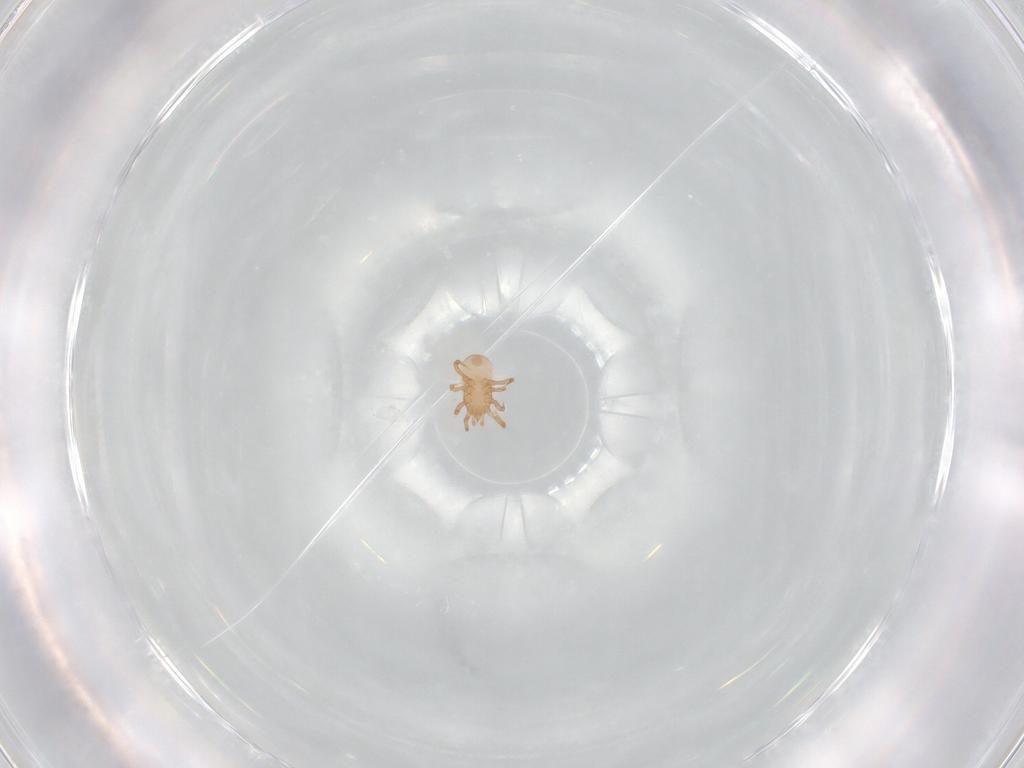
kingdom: Animalia
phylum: Arthropoda
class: Arachnida
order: Mesostigmata
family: Ascidae
